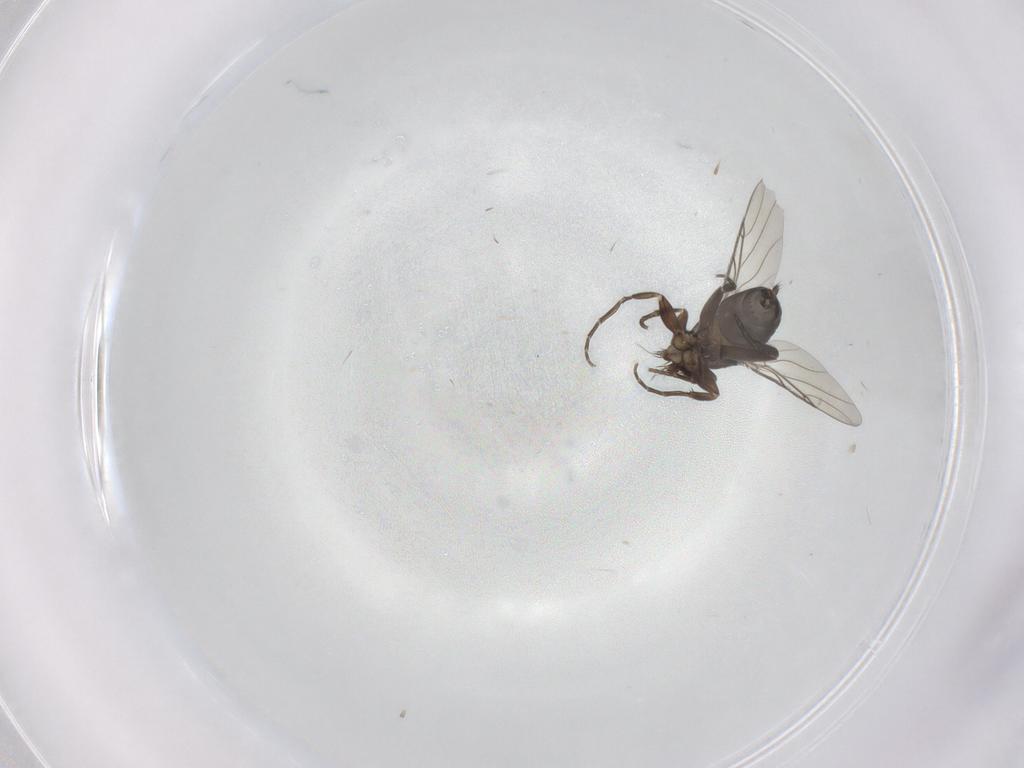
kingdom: Animalia
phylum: Arthropoda
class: Insecta
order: Diptera
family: Phoridae
